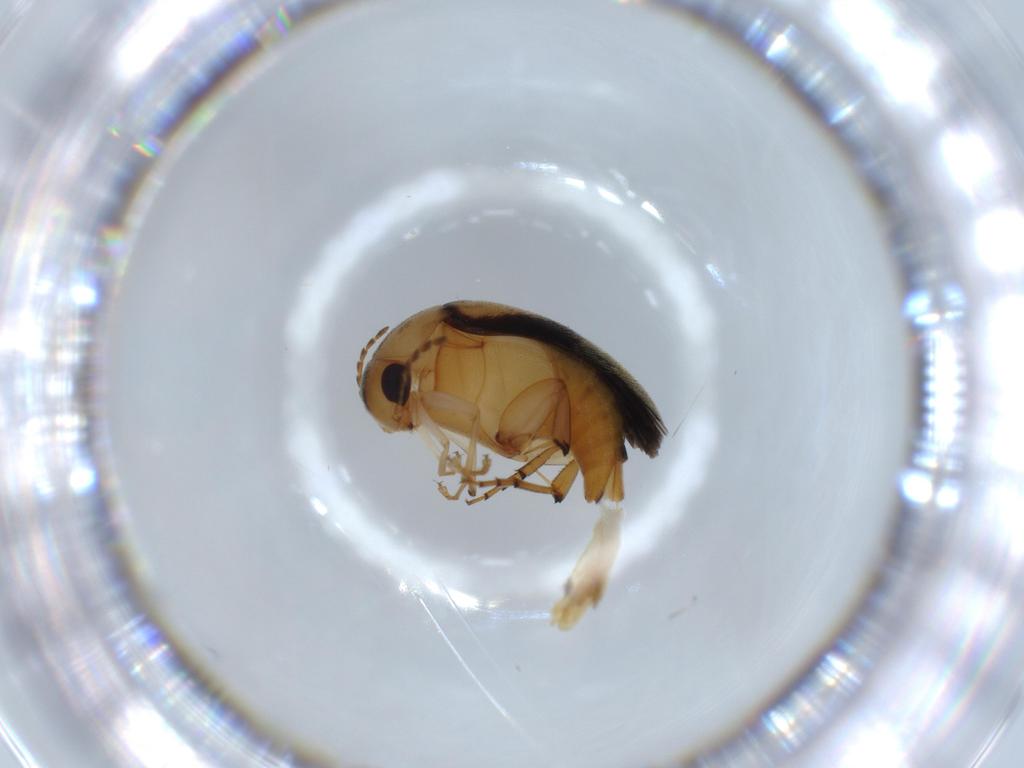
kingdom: Animalia
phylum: Arthropoda
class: Insecta
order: Coleoptera
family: Mordellidae
